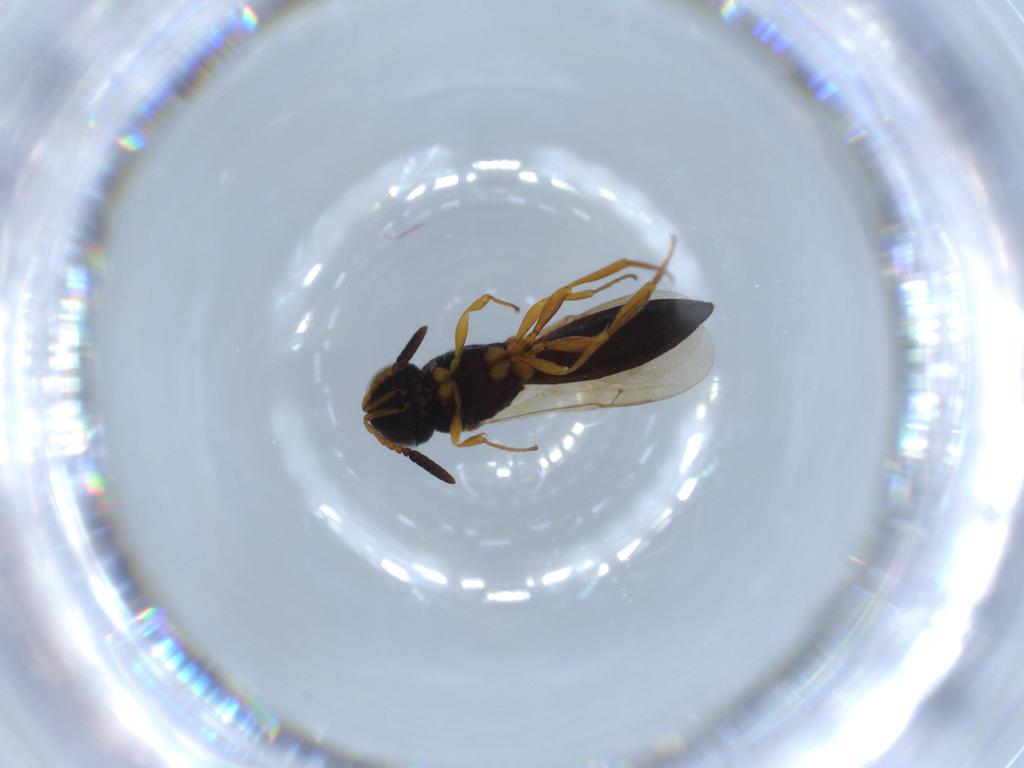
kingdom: Animalia
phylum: Arthropoda
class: Insecta
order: Hymenoptera
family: Scelionidae
